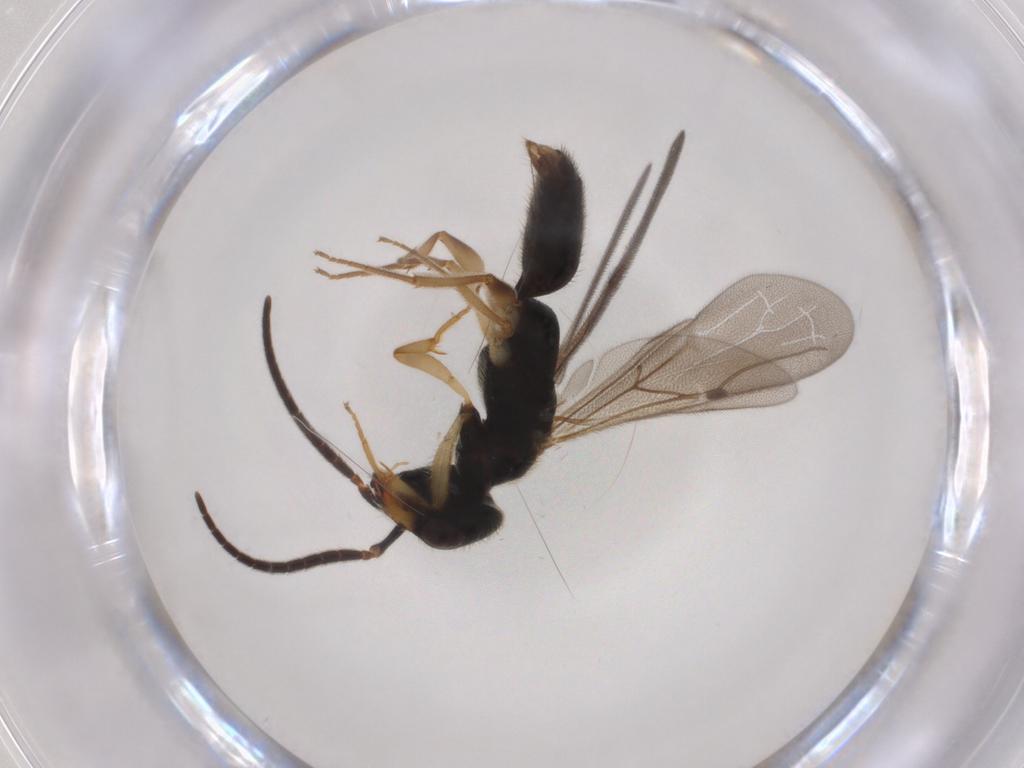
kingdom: Animalia
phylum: Arthropoda
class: Insecta
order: Hymenoptera
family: Bethylidae
